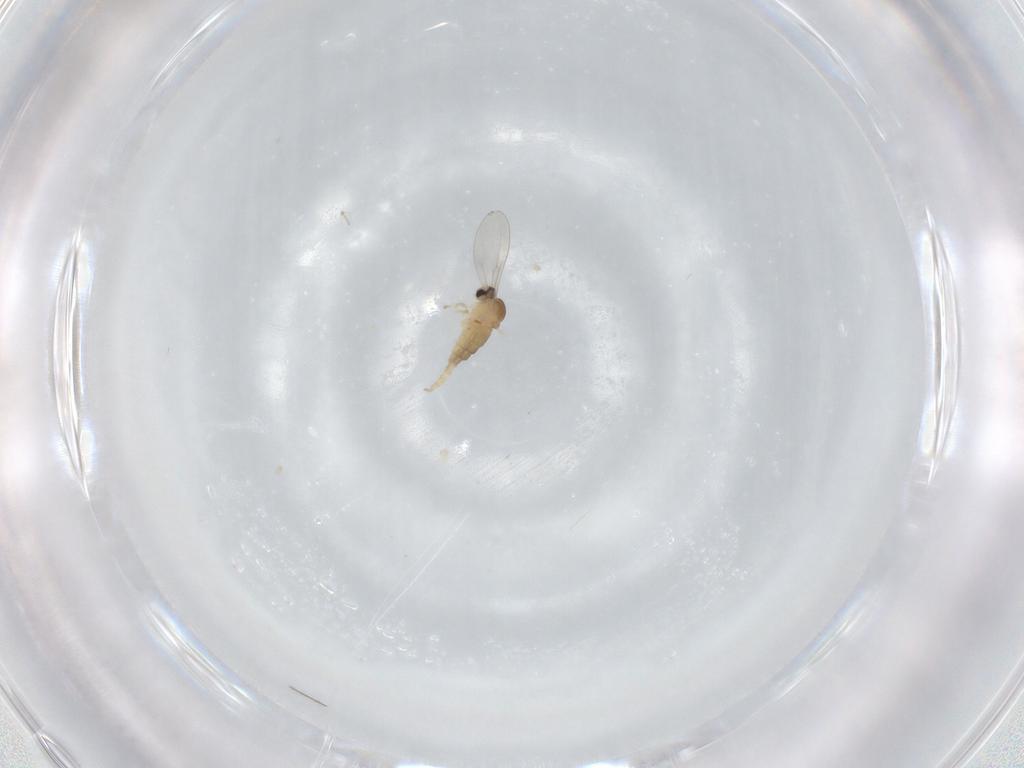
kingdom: Animalia
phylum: Arthropoda
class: Insecta
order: Diptera
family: Cecidomyiidae
